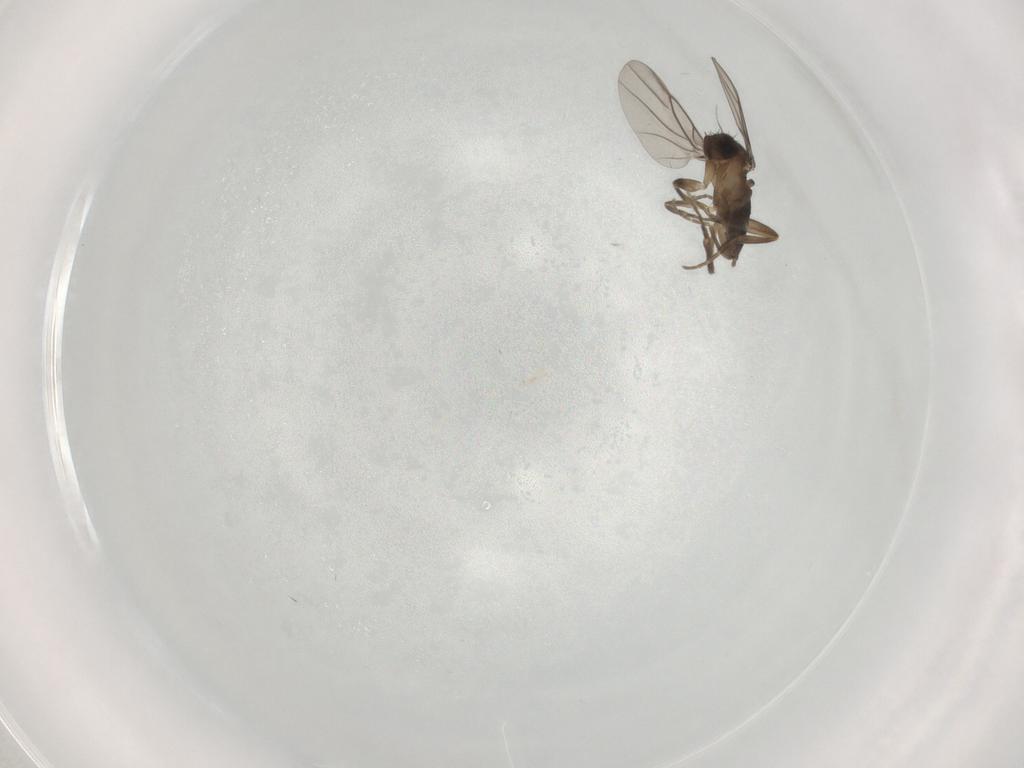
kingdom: Animalia
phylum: Arthropoda
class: Insecta
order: Diptera
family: Phoridae
